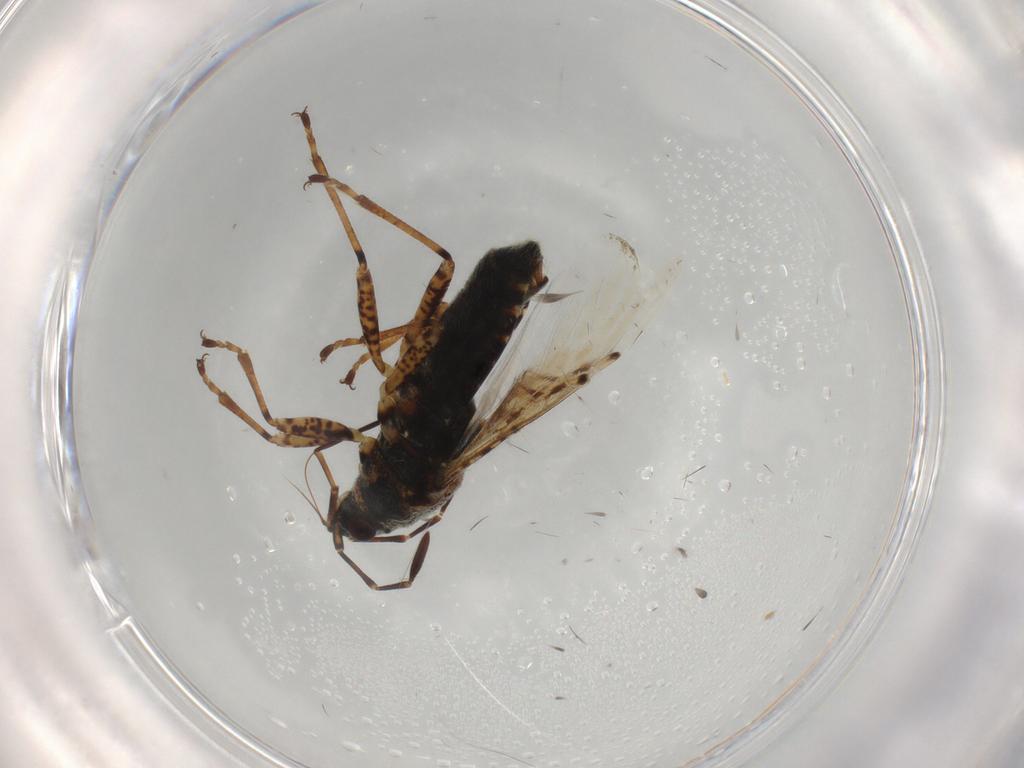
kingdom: Animalia
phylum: Arthropoda
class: Insecta
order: Hemiptera
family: Lygaeidae
